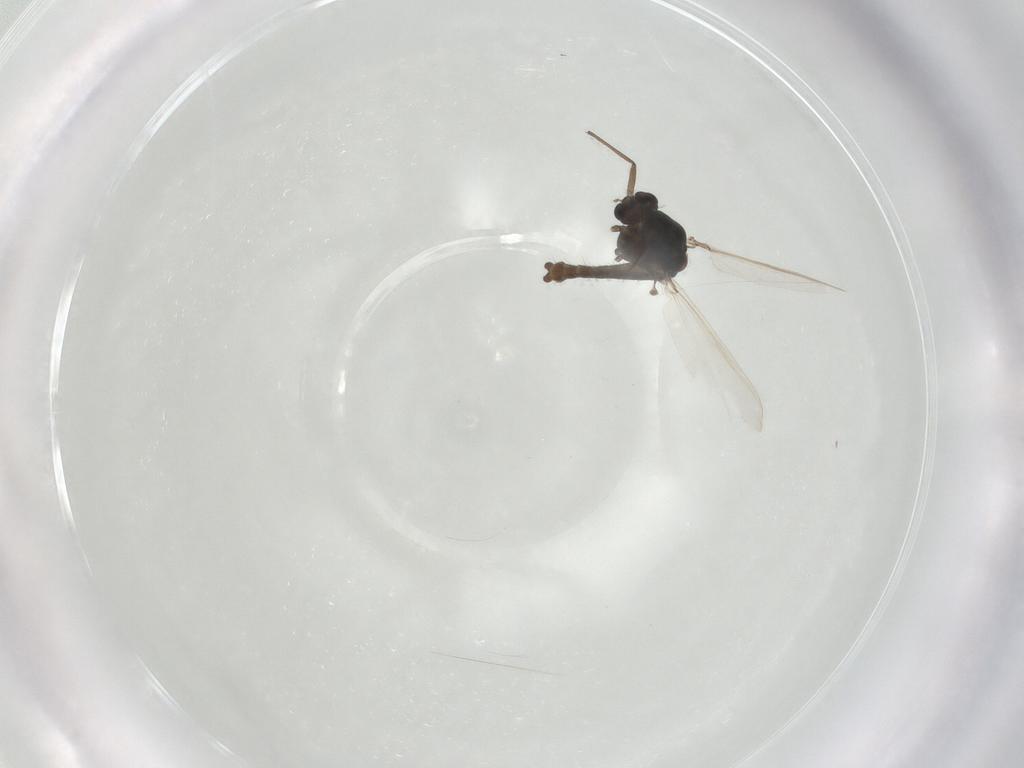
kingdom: Animalia
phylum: Arthropoda
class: Insecta
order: Diptera
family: Chironomidae
